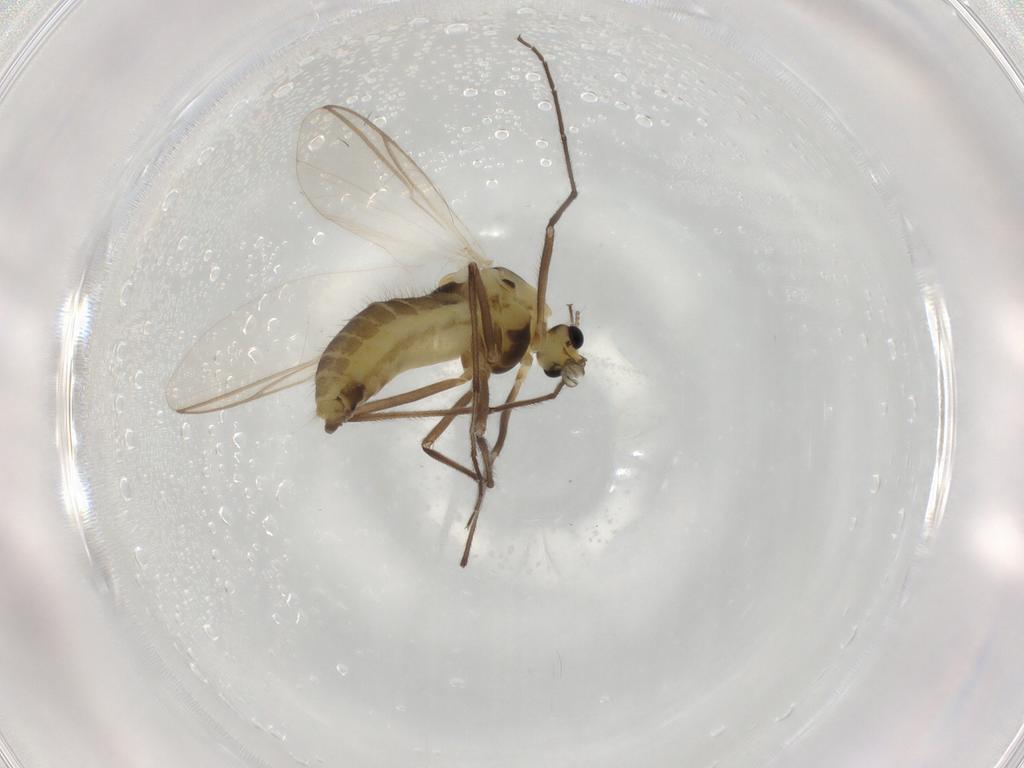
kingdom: Animalia
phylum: Arthropoda
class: Insecta
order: Diptera
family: Chironomidae
